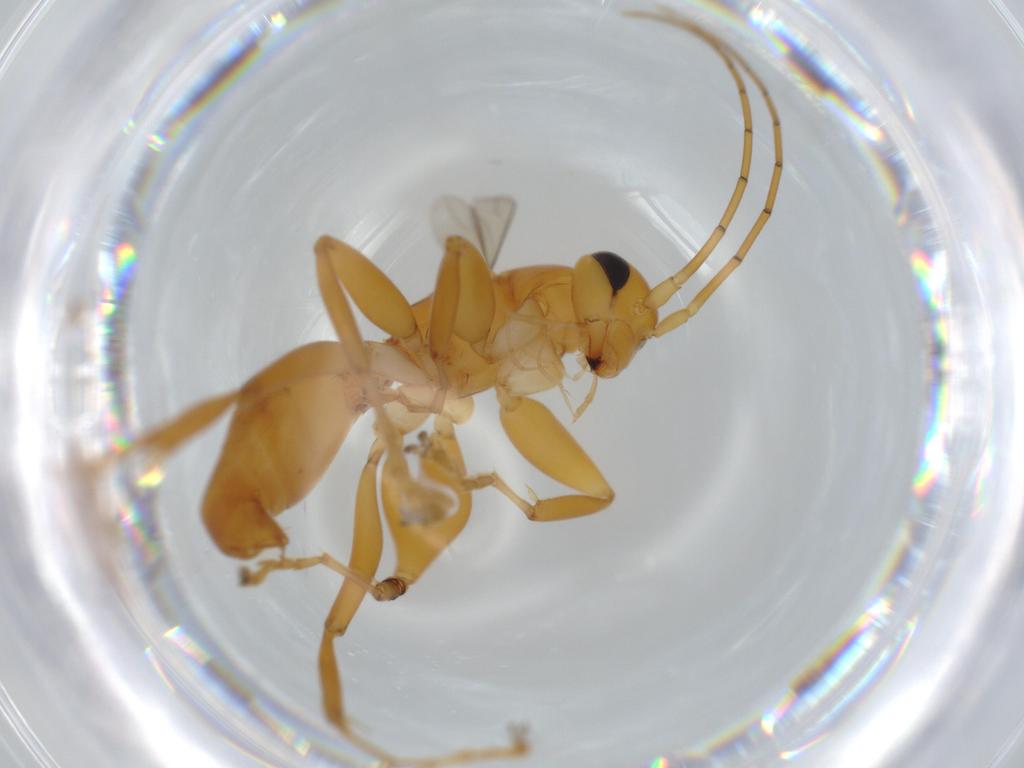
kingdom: Animalia
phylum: Arthropoda
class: Insecta
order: Hymenoptera
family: Rhopalosomatidae
